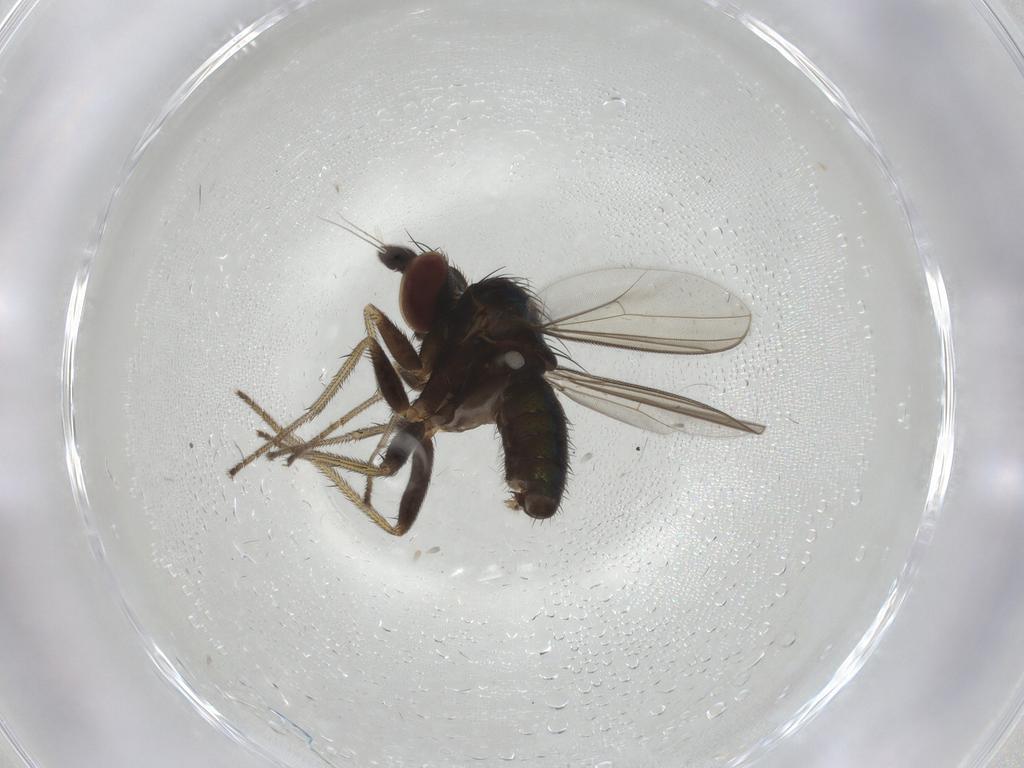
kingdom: Animalia
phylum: Arthropoda
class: Insecta
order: Diptera
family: Dolichopodidae
